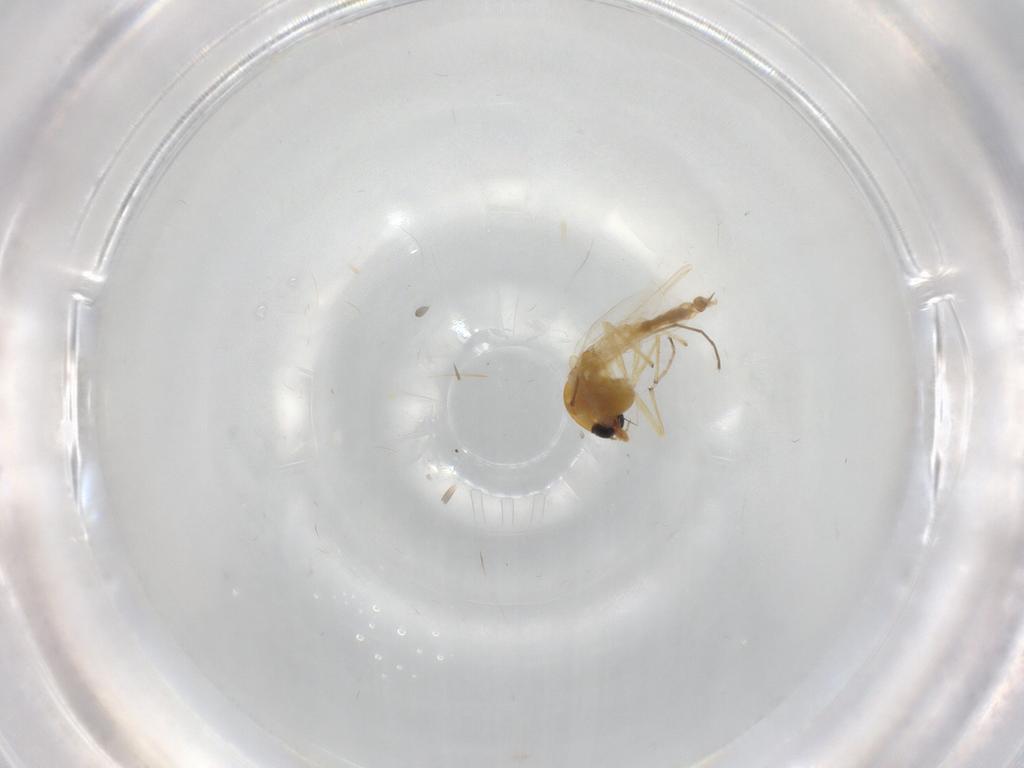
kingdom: Animalia
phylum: Arthropoda
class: Insecta
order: Diptera
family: Chironomidae
